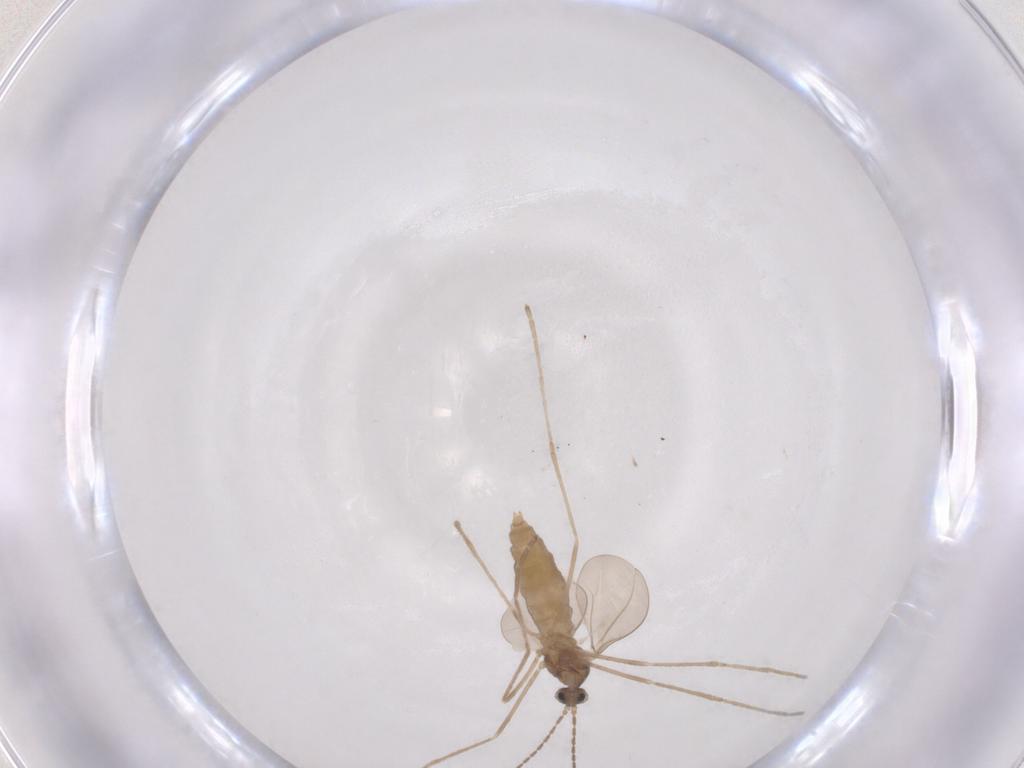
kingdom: Animalia
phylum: Arthropoda
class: Insecta
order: Diptera
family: Cecidomyiidae
